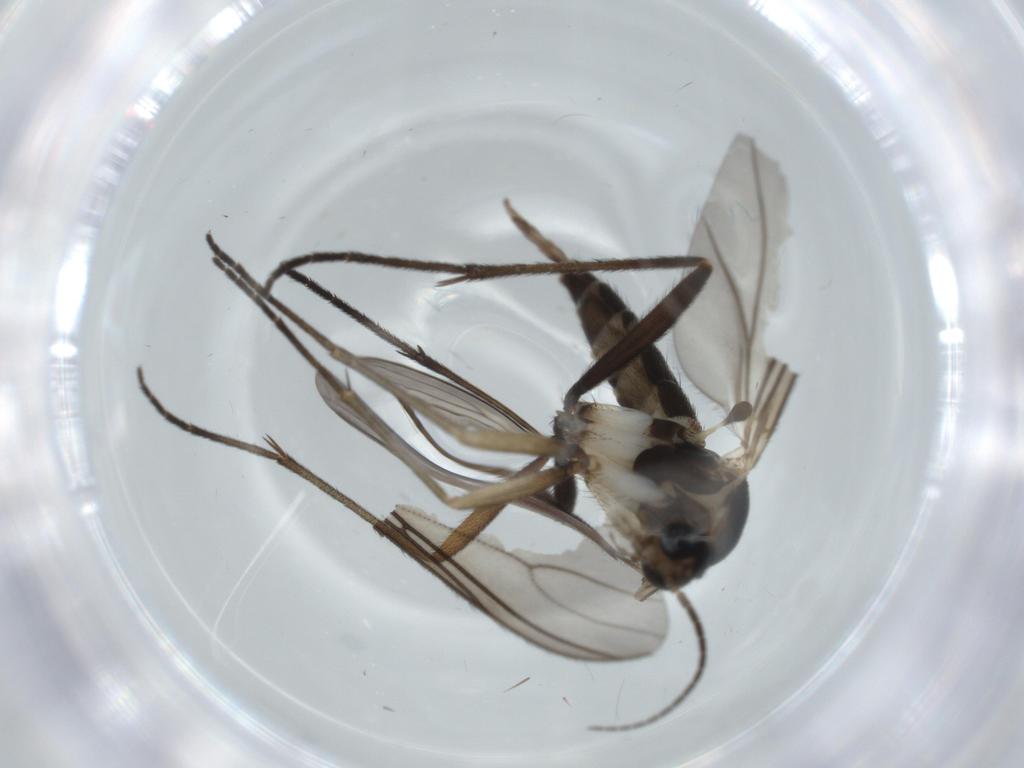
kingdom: Animalia
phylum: Arthropoda
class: Insecta
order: Diptera
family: Sciaridae
